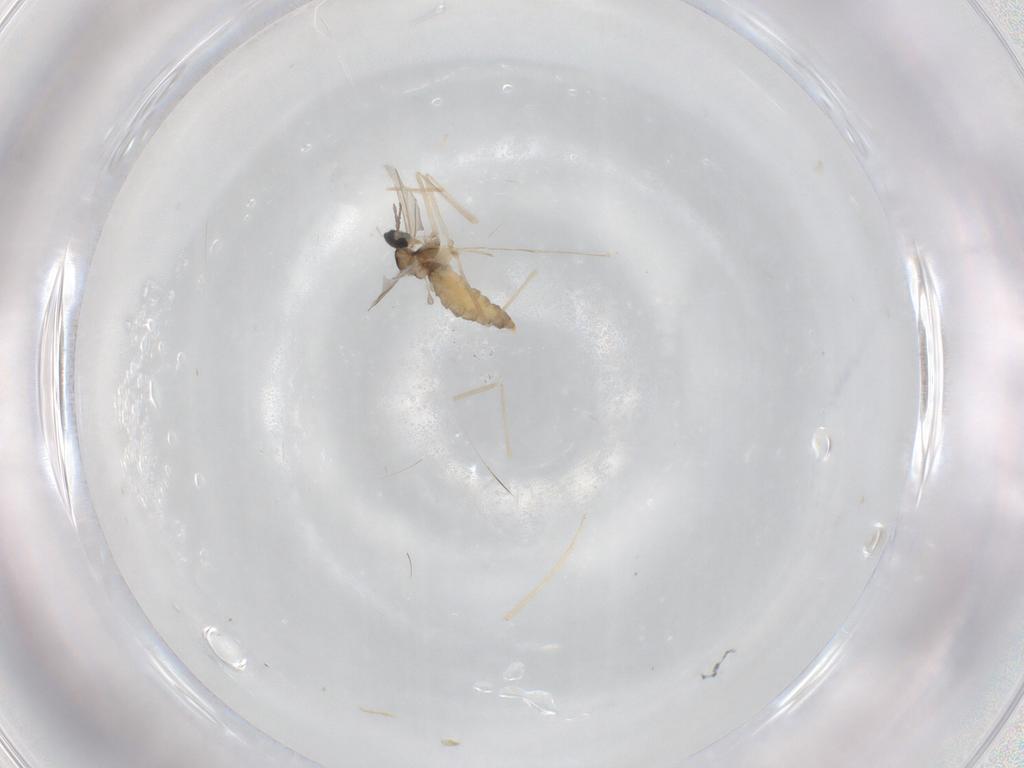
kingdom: Animalia
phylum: Arthropoda
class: Insecta
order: Diptera
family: Cecidomyiidae
